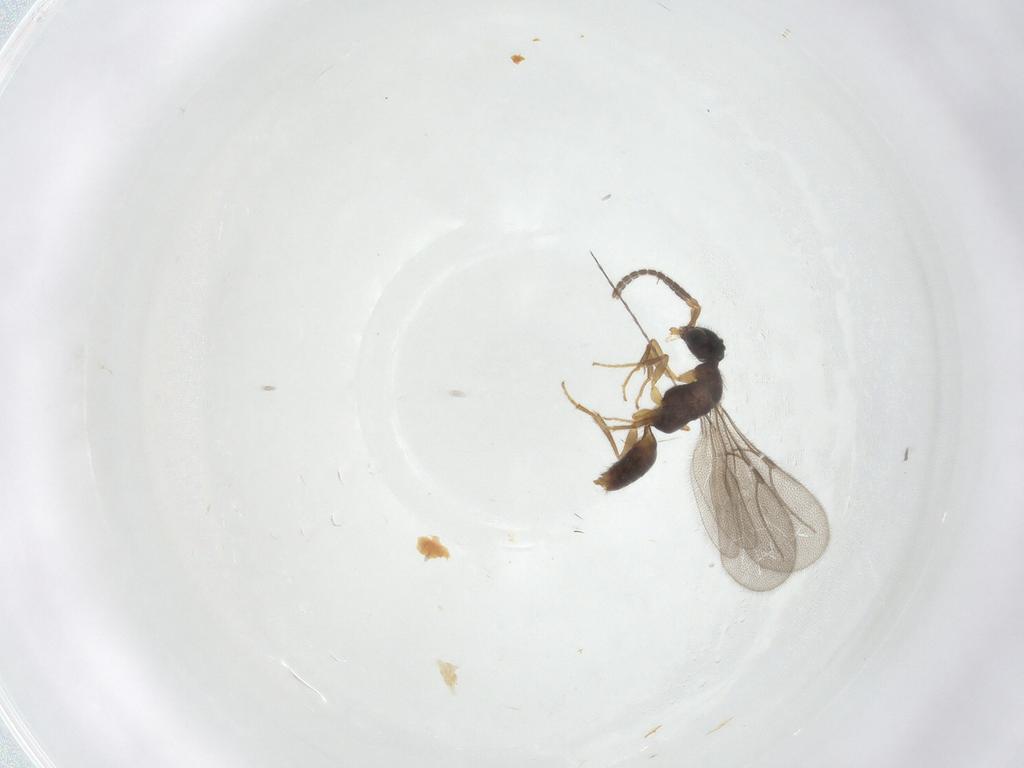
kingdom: Animalia
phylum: Arthropoda
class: Insecta
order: Hymenoptera
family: Bethylidae
